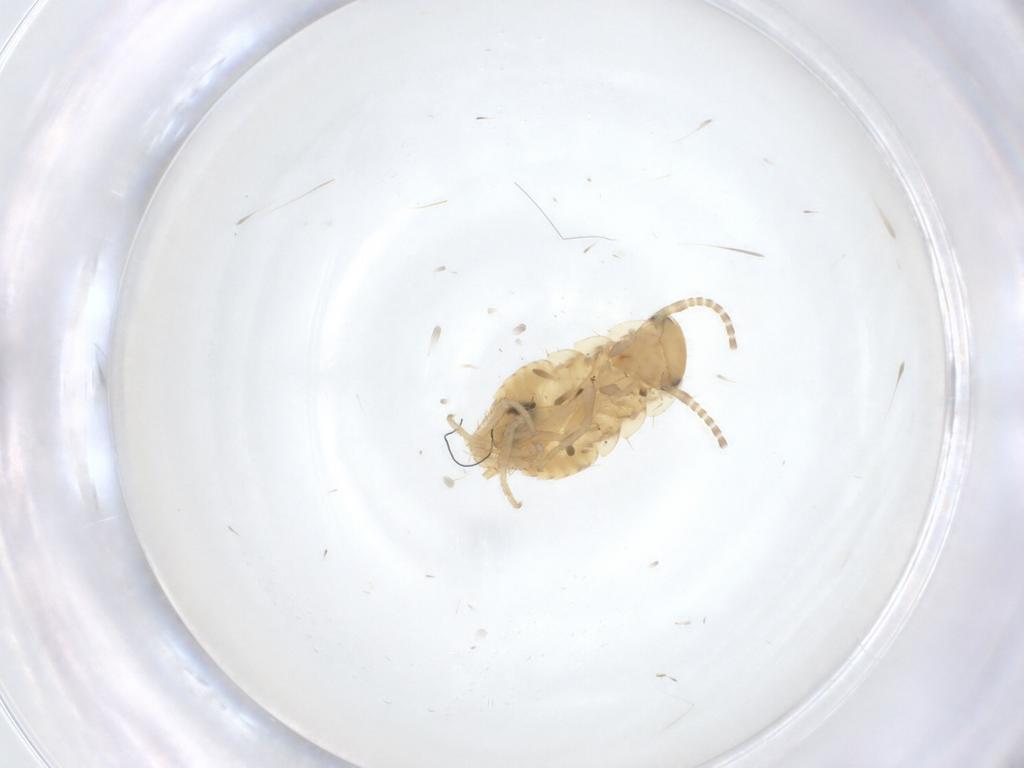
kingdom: Animalia
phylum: Arthropoda
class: Insecta
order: Blattodea
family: Ectobiidae
